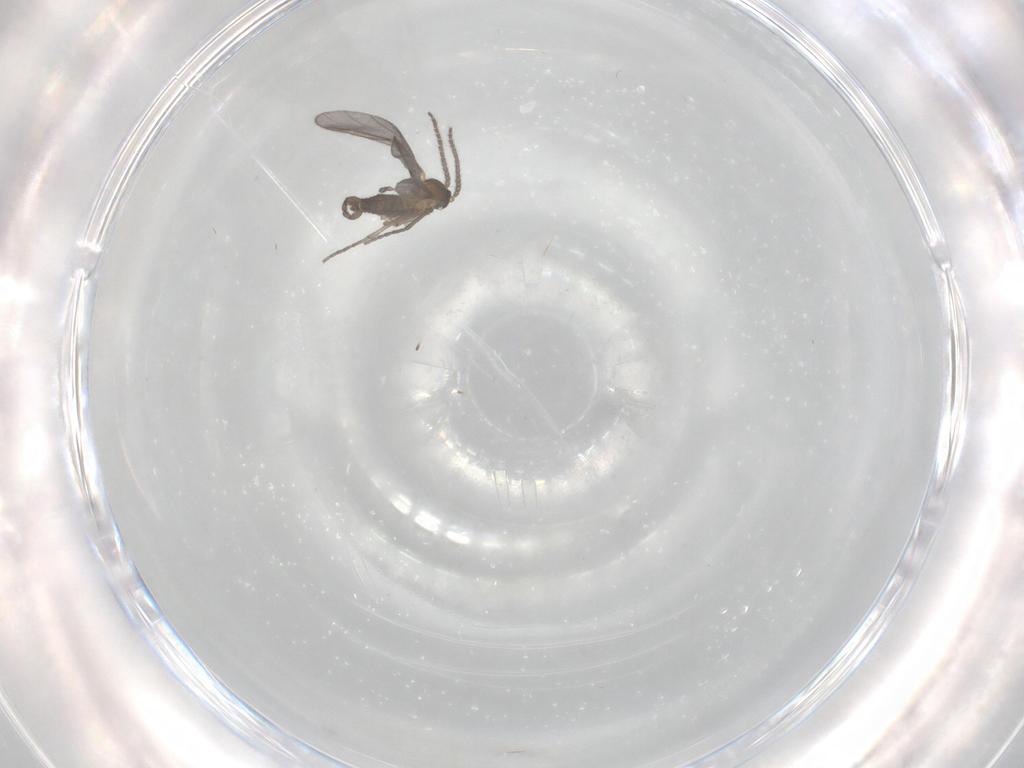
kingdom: Animalia
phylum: Arthropoda
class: Insecta
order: Diptera
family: Sciaridae
